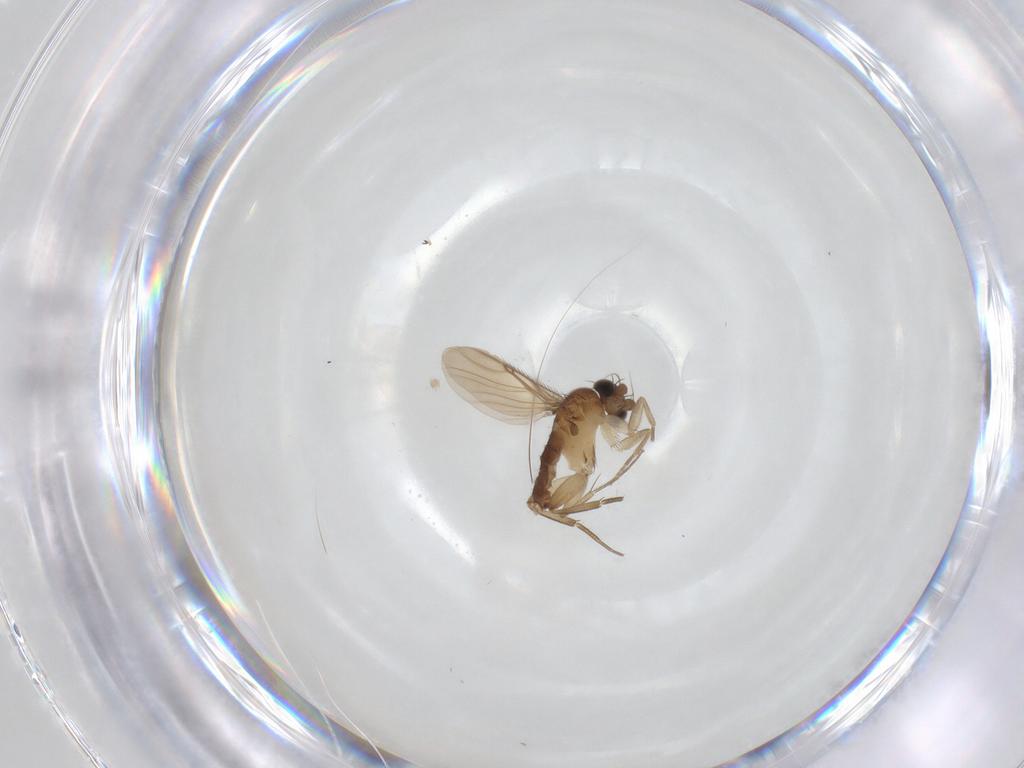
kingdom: Animalia
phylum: Arthropoda
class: Insecta
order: Diptera
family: Phoridae
